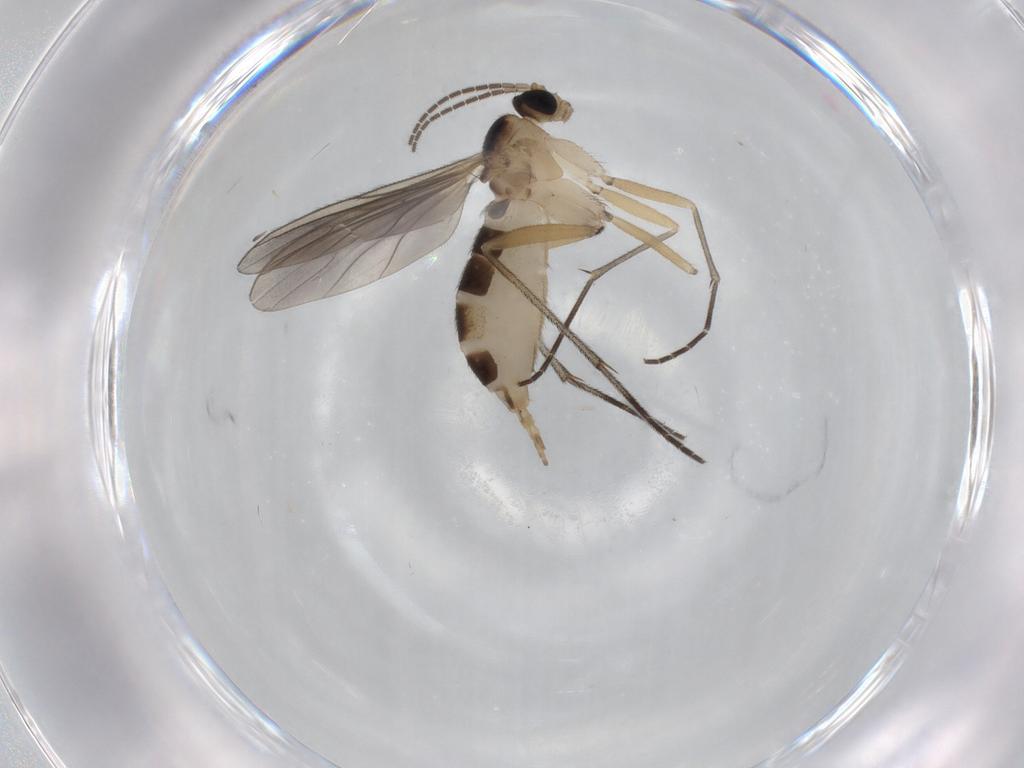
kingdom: Animalia
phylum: Arthropoda
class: Insecta
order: Diptera
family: Sciaridae
